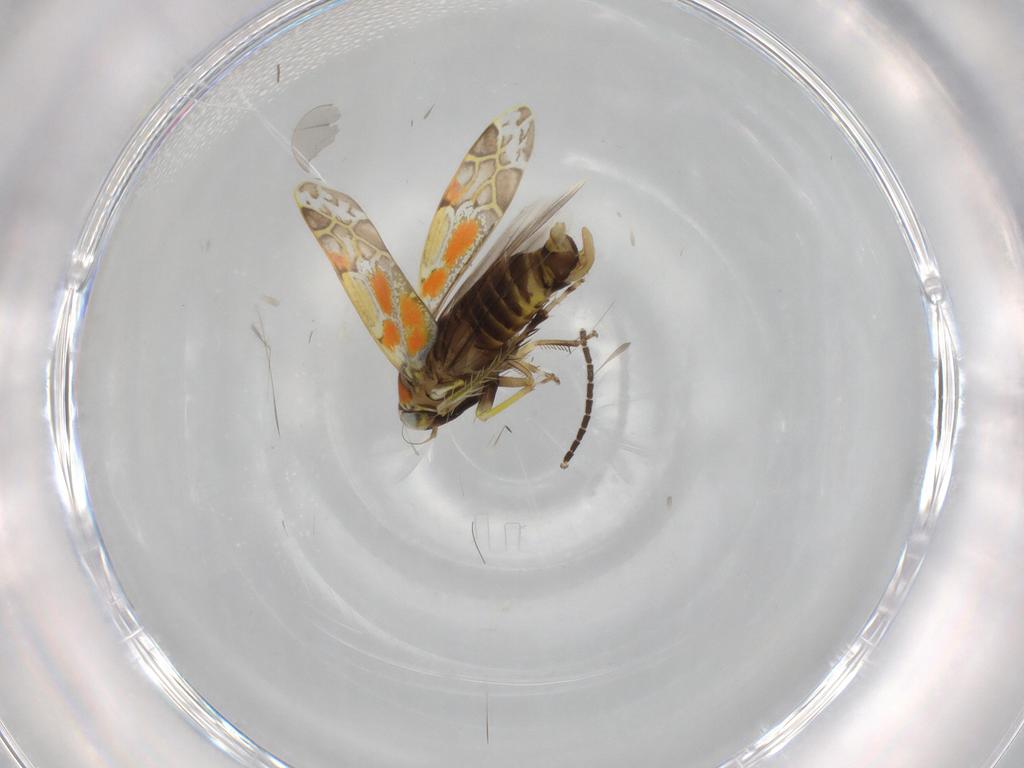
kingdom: Animalia
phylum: Arthropoda
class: Insecta
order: Hemiptera
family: Cicadellidae
